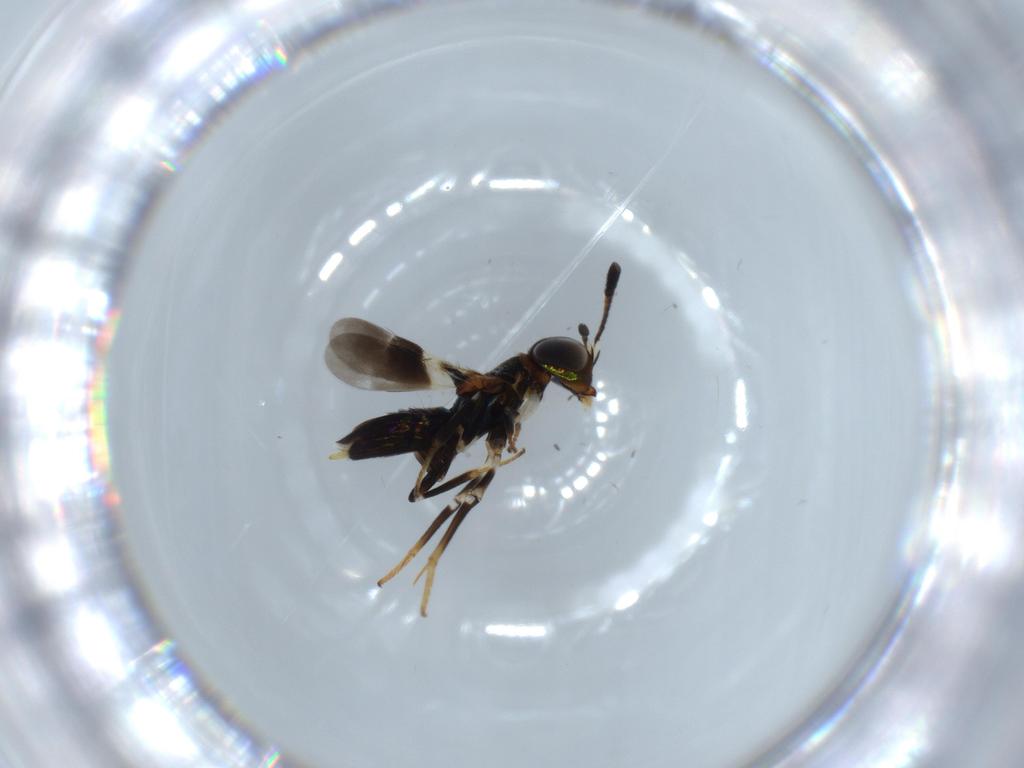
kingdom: Animalia
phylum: Arthropoda
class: Insecta
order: Hymenoptera
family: Encyrtidae
